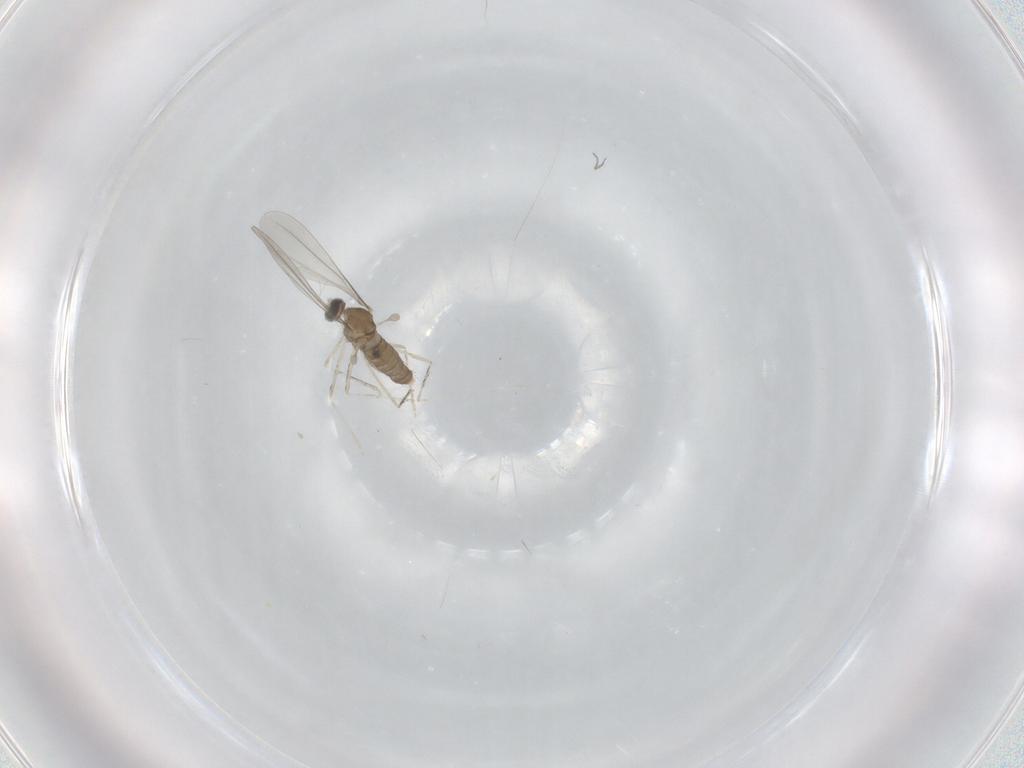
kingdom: Animalia
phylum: Arthropoda
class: Insecta
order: Diptera
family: Cecidomyiidae
